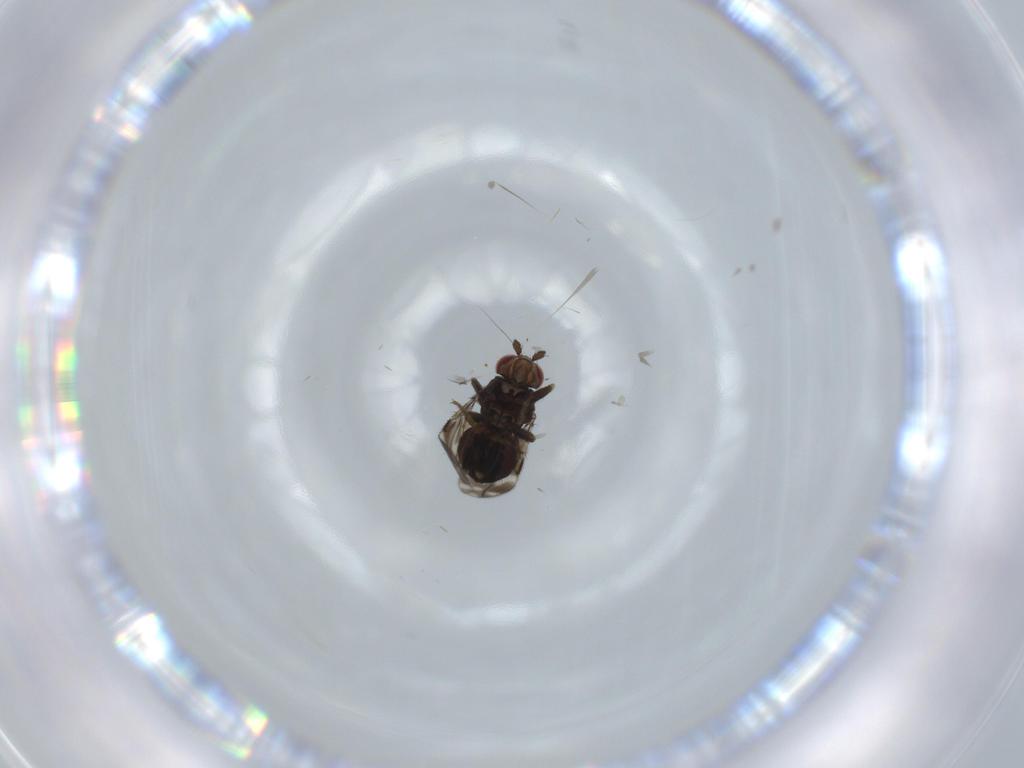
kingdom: Animalia
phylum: Arthropoda
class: Insecta
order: Diptera
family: Sphaeroceridae
